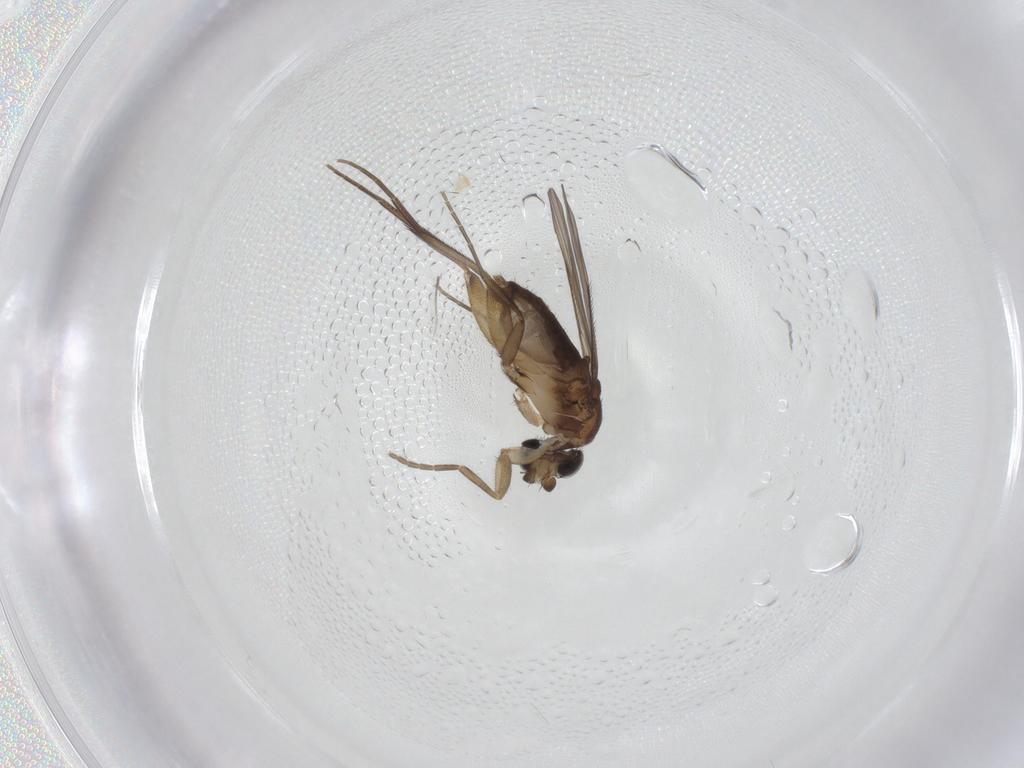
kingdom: Animalia
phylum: Arthropoda
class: Insecta
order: Diptera
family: Phoridae
